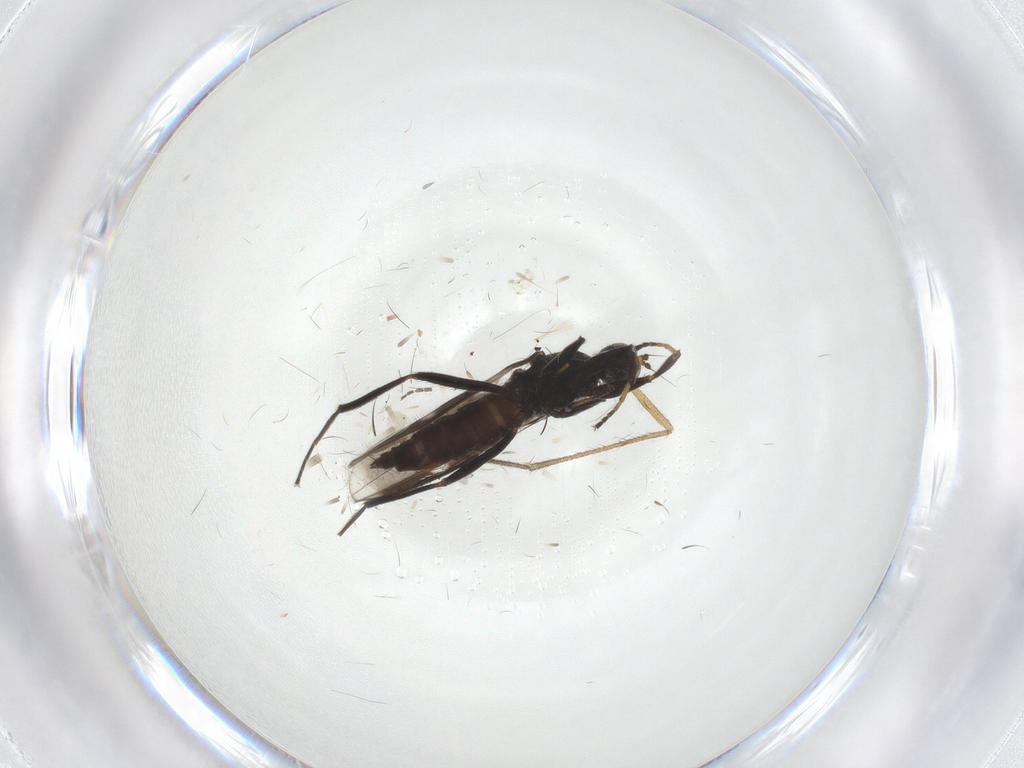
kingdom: Animalia
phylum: Arthropoda
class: Insecta
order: Diptera
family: Hybotidae
